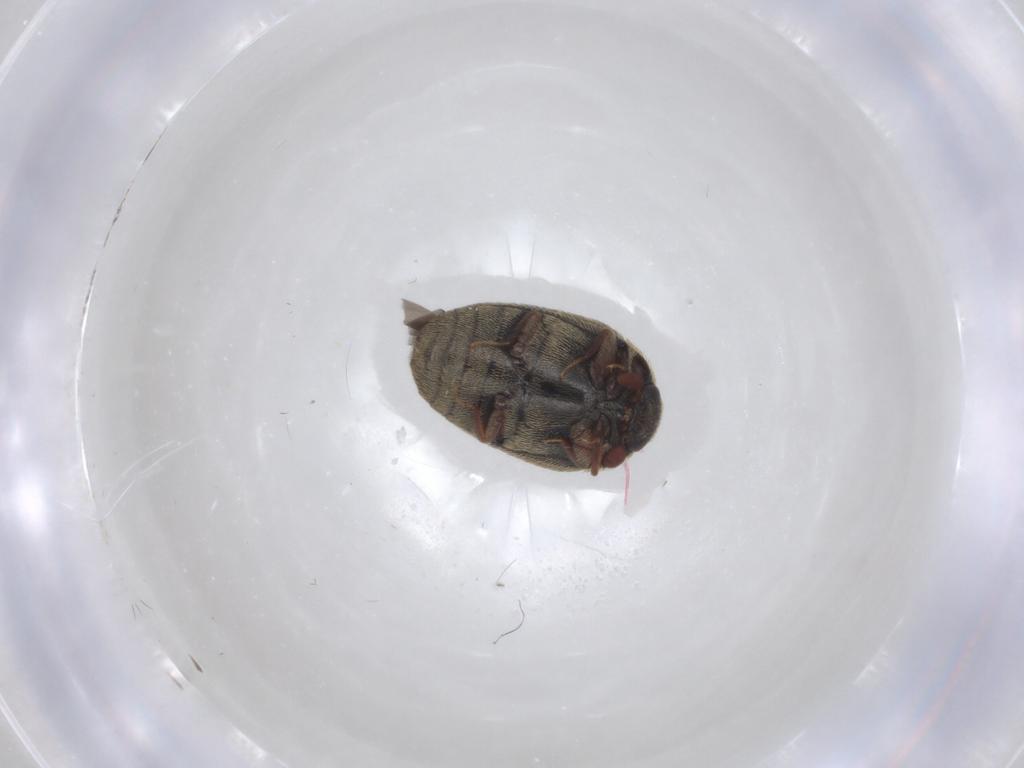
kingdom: Animalia
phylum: Arthropoda
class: Insecta
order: Coleoptera
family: Dermestidae
